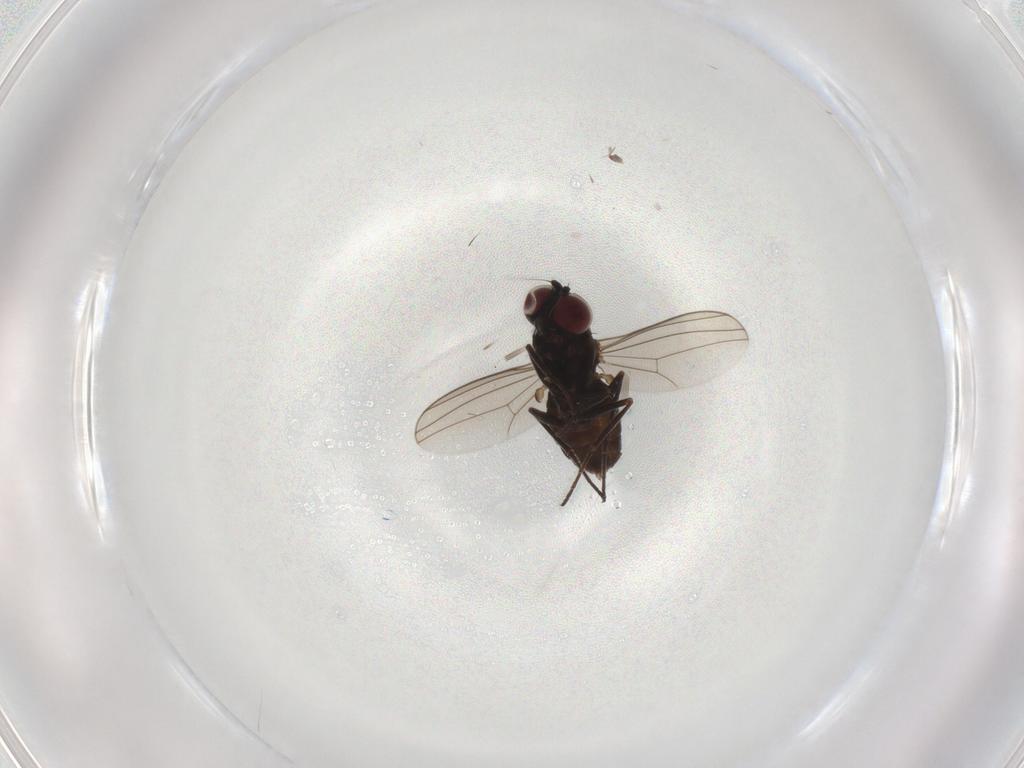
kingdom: Animalia
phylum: Arthropoda
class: Insecta
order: Diptera
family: Dolichopodidae
